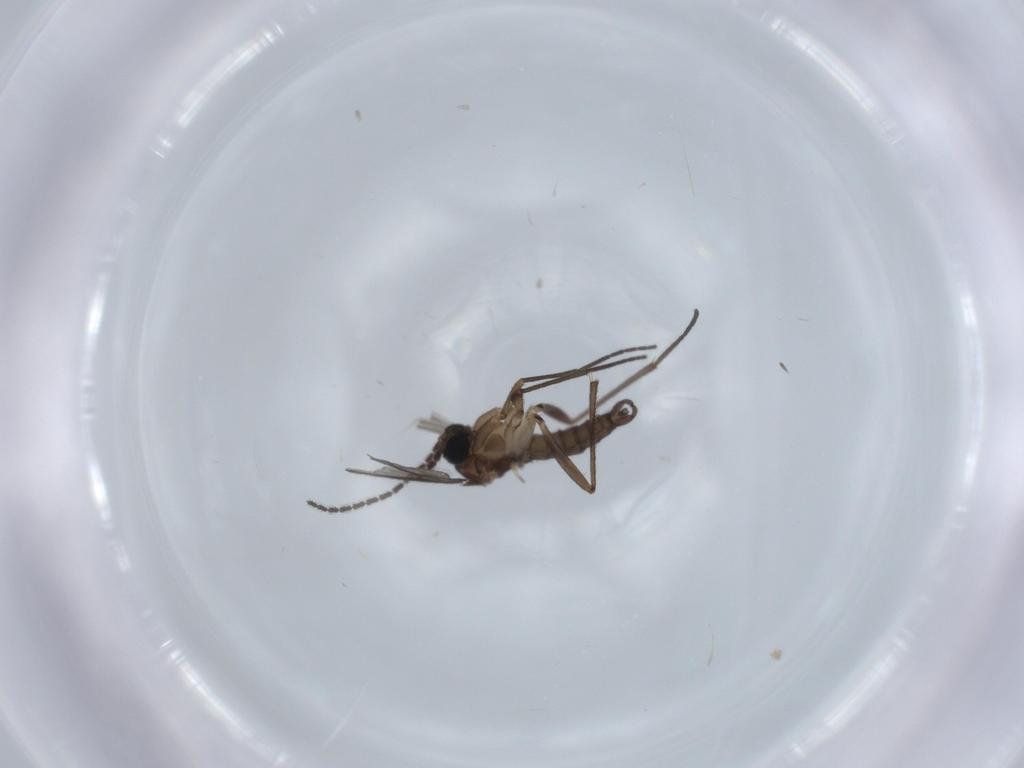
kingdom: Animalia
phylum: Arthropoda
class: Insecta
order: Diptera
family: Sciaridae
